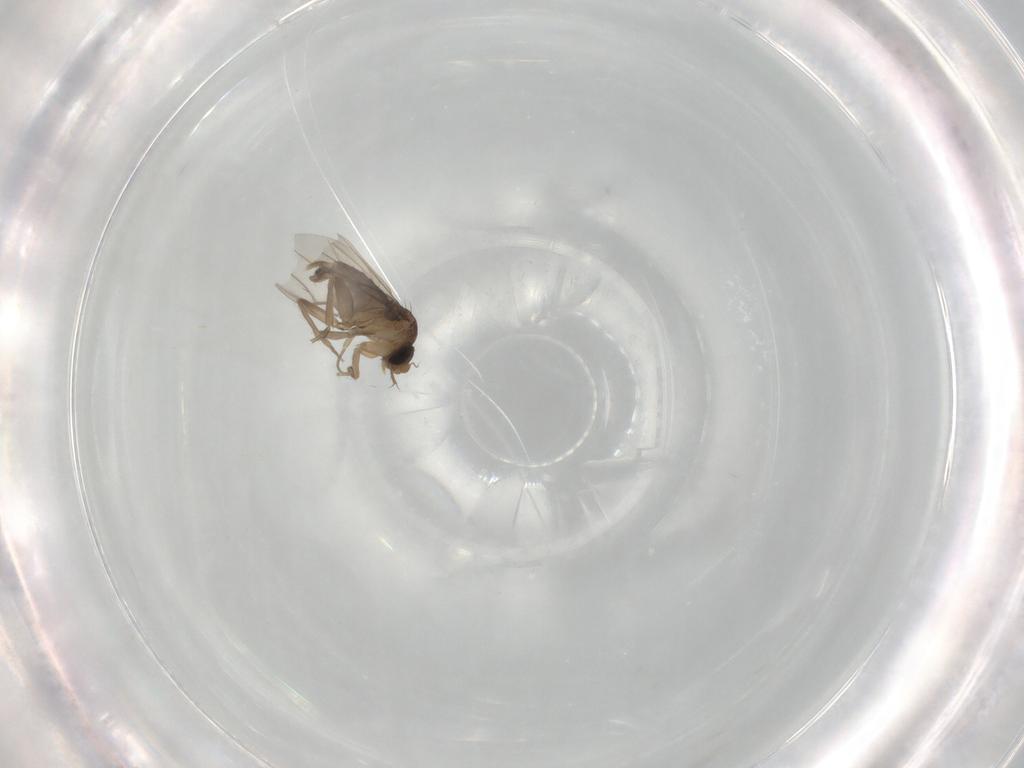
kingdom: Animalia
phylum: Arthropoda
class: Insecta
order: Diptera
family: Phoridae
